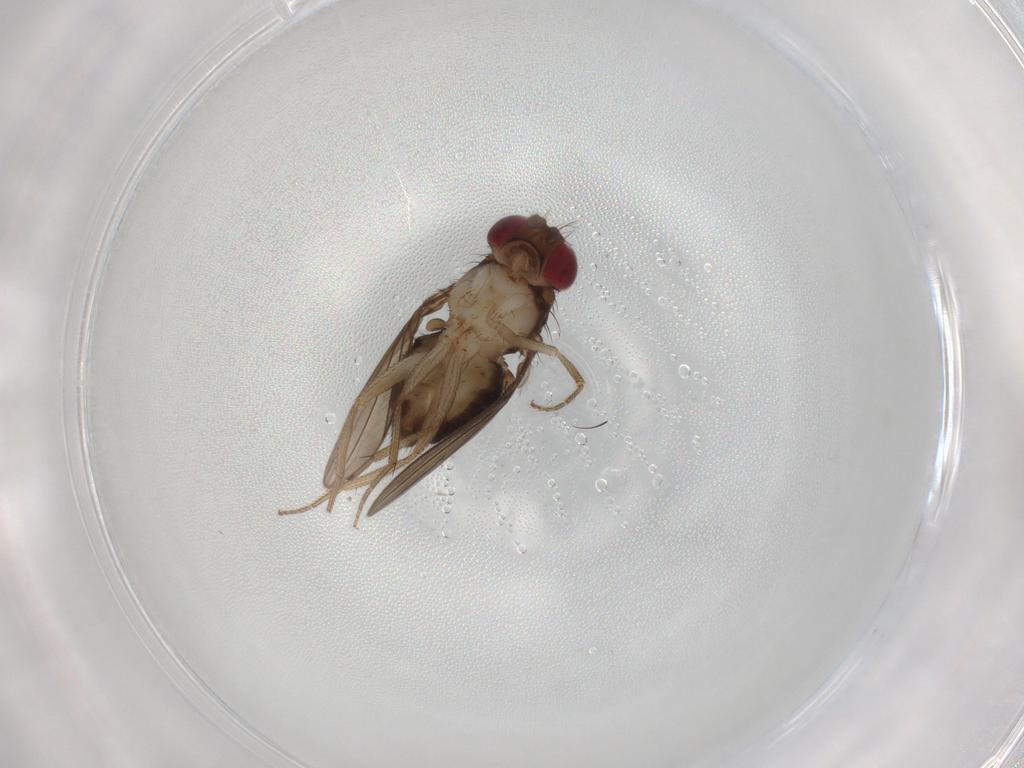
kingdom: Animalia
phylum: Arthropoda
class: Insecta
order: Diptera
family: Drosophilidae
